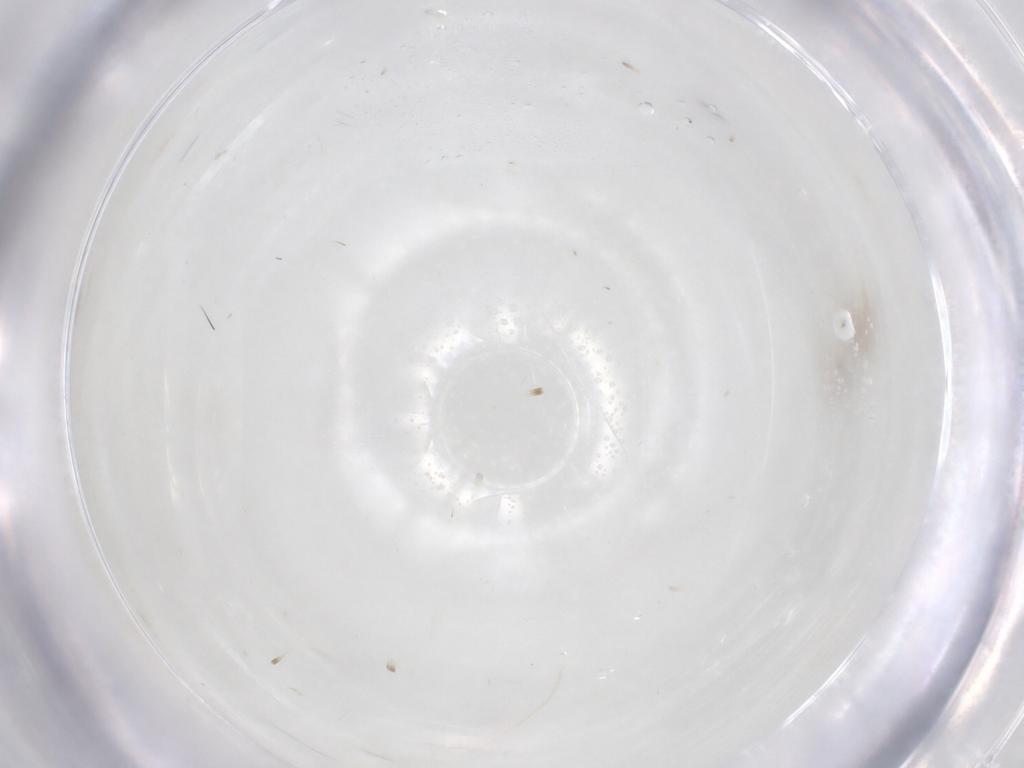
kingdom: Animalia
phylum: Arthropoda
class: Insecta
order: Diptera
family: Ceratopogonidae
